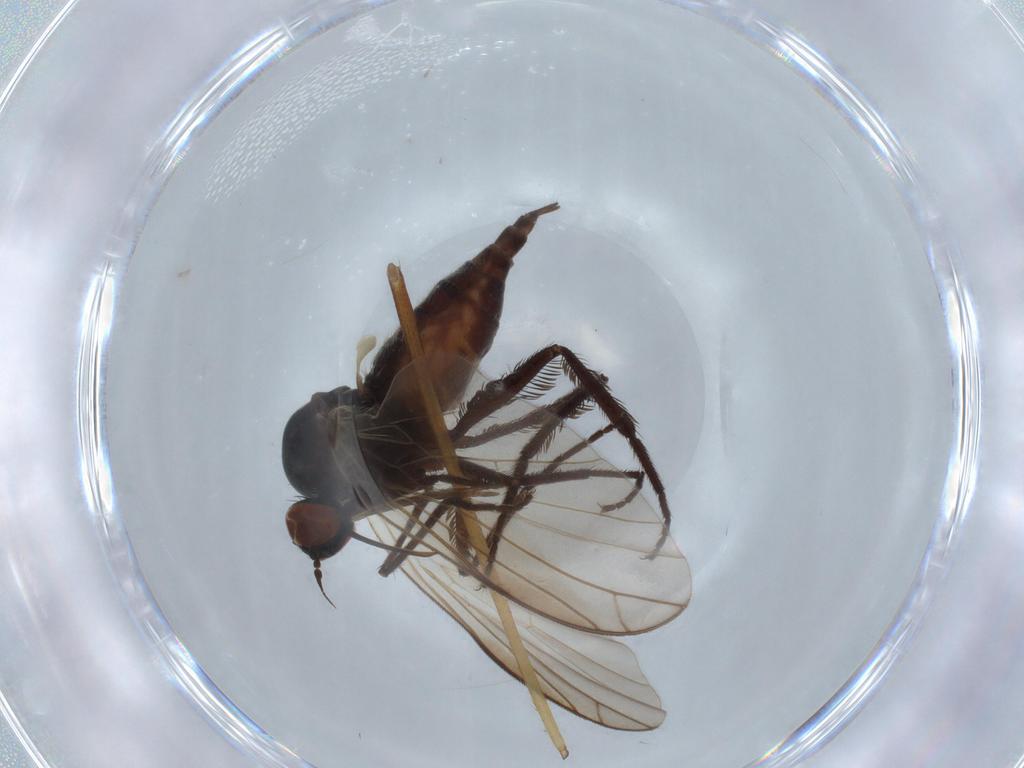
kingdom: Animalia
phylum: Arthropoda
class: Insecta
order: Diptera
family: Empididae
